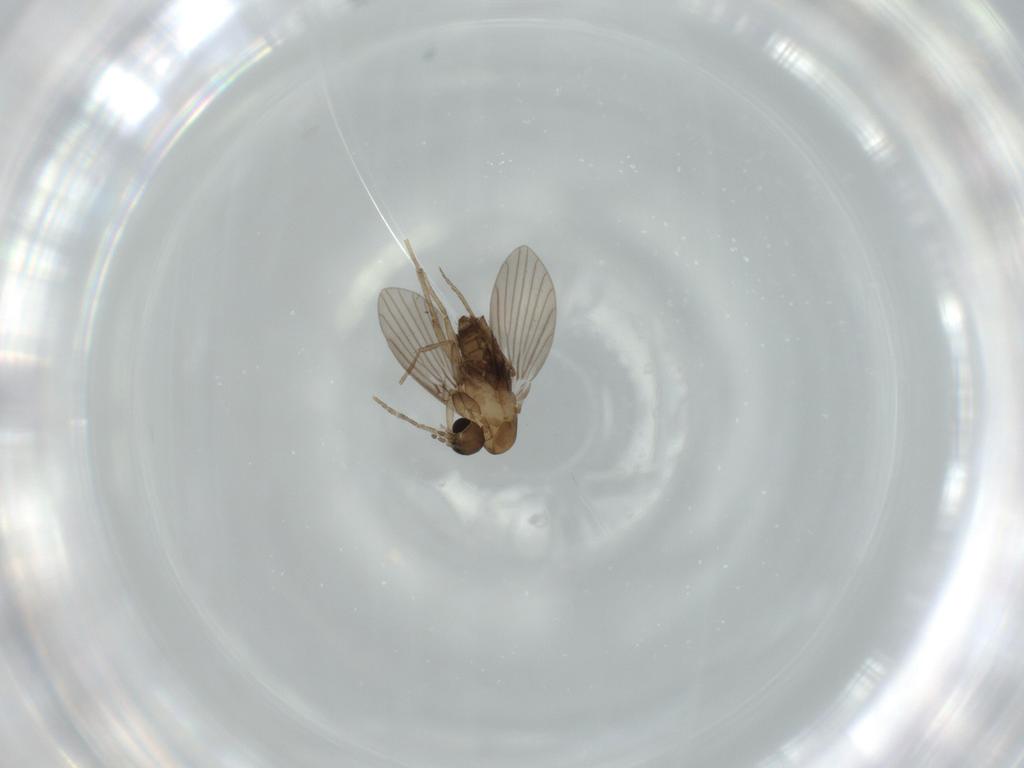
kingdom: Animalia
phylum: Arthropoda
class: Insecta
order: Diptera
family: Psychodidae
